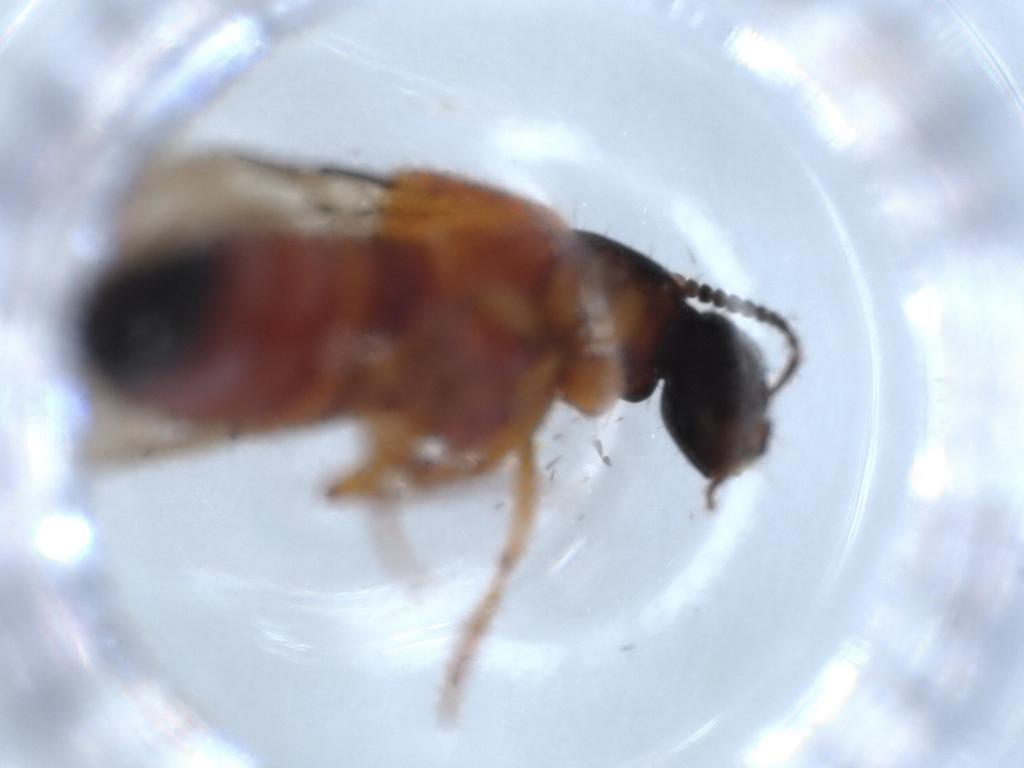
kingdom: Animalia
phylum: Arthropoda
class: Insecta
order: Coleoptera
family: Staphylinidae
